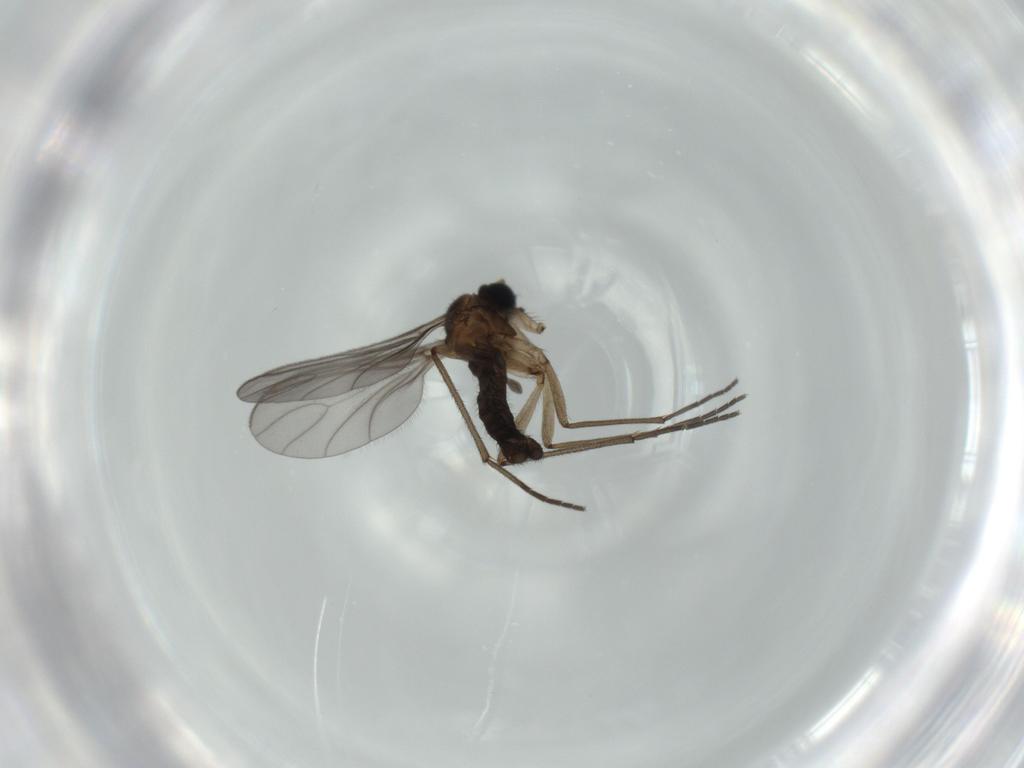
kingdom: Animalia
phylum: Arthropoda
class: Insecta
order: Diptera
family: Sciaridae
